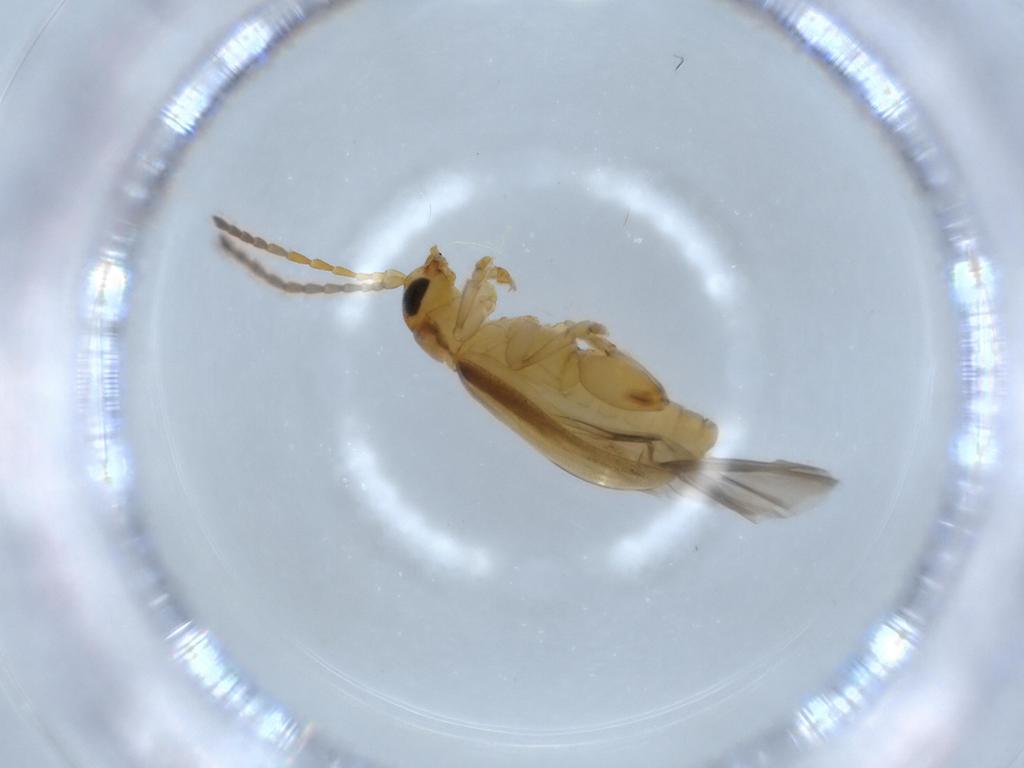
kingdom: Animalia
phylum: Arthropoda
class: Insecta
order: Coleoptera
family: Chrysomelidae
